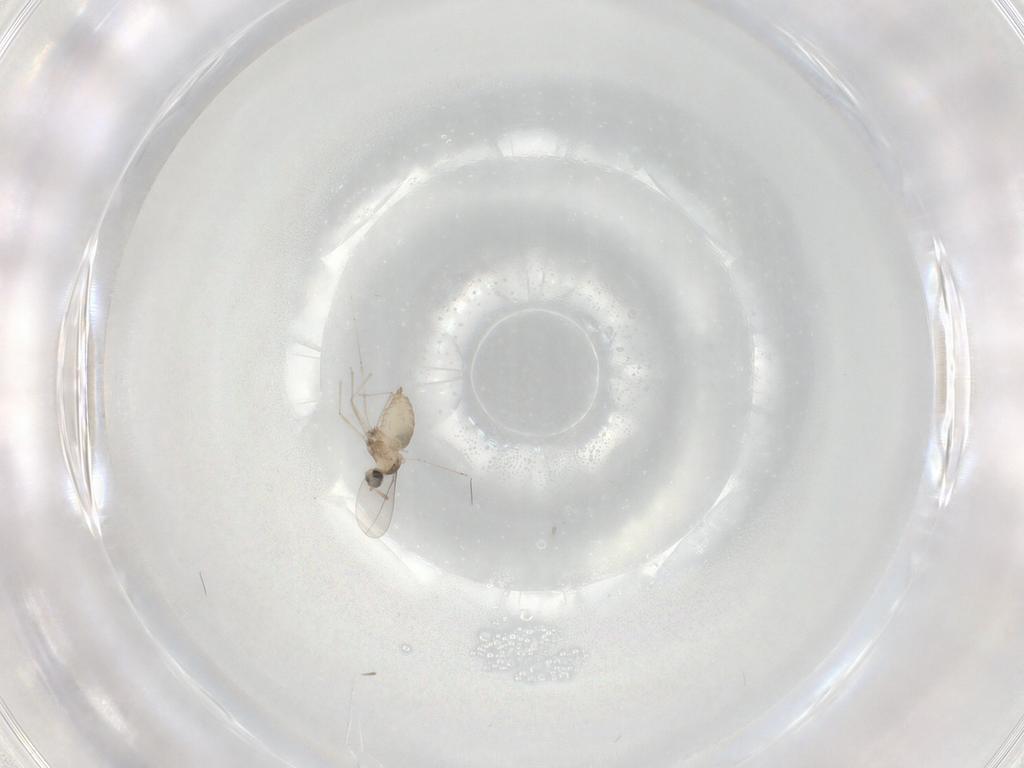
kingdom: Animalia
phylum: Arthropoda
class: Insecta
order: Diptera
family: Cecidomyiidae
